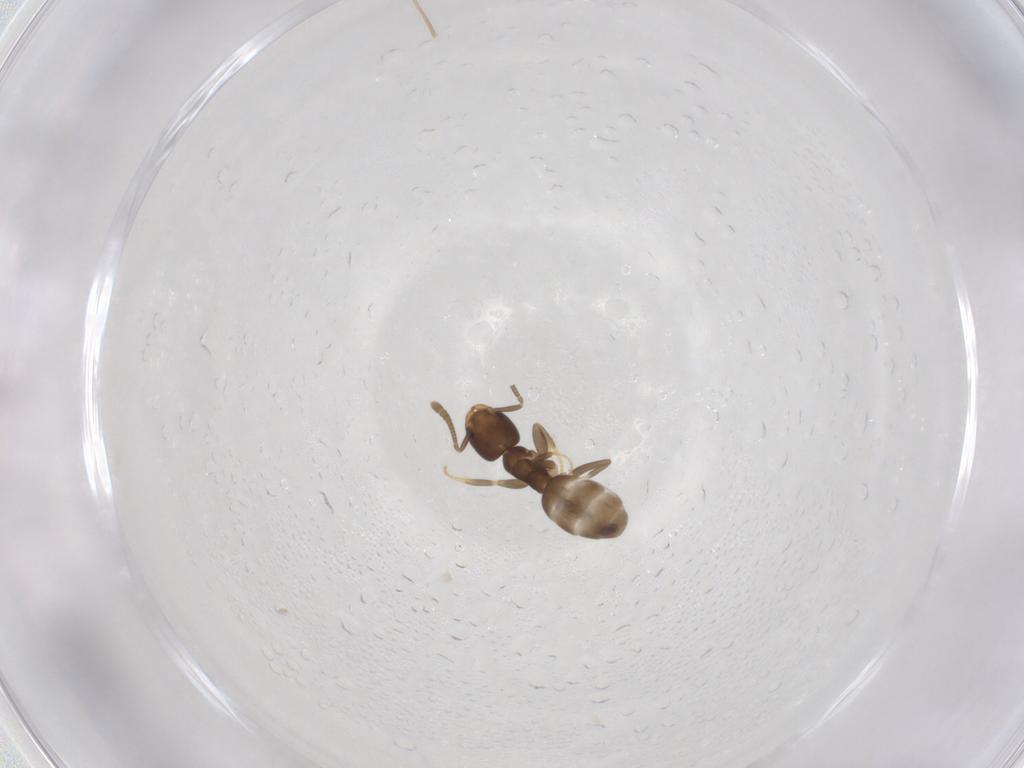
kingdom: Animalia
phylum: Arthropoda
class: Insecta
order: Hymenoptera
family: Formicidae
